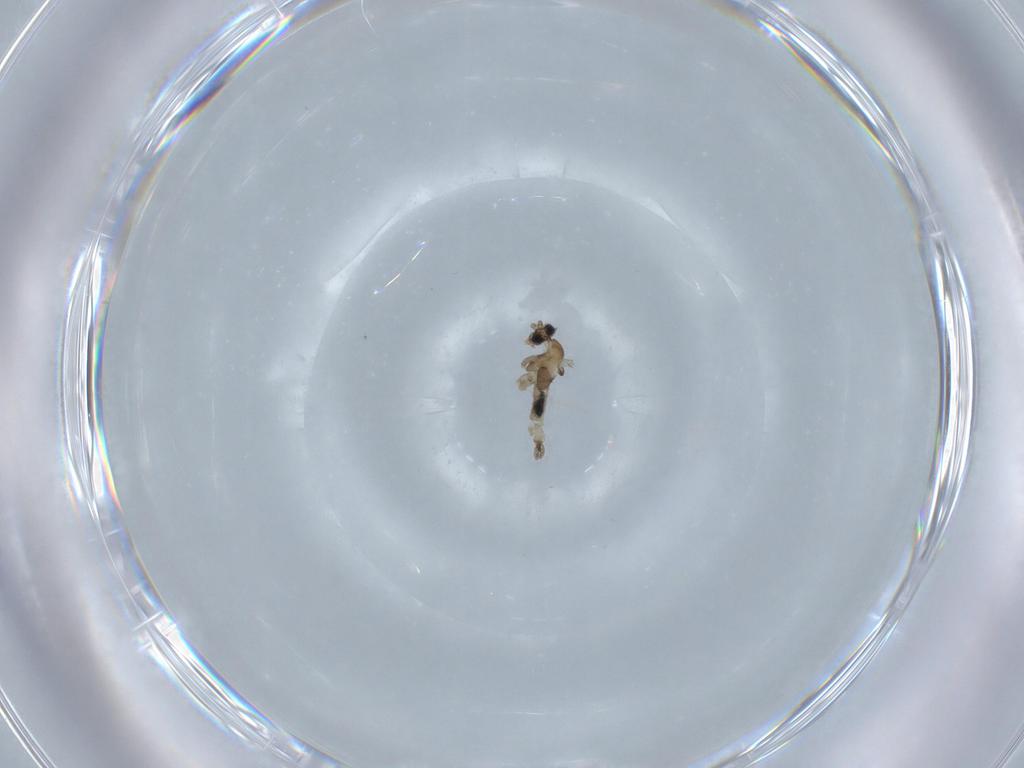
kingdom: Animalia
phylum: Arthropoda
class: Insecta
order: Diptera
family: Cecidomyiidae
